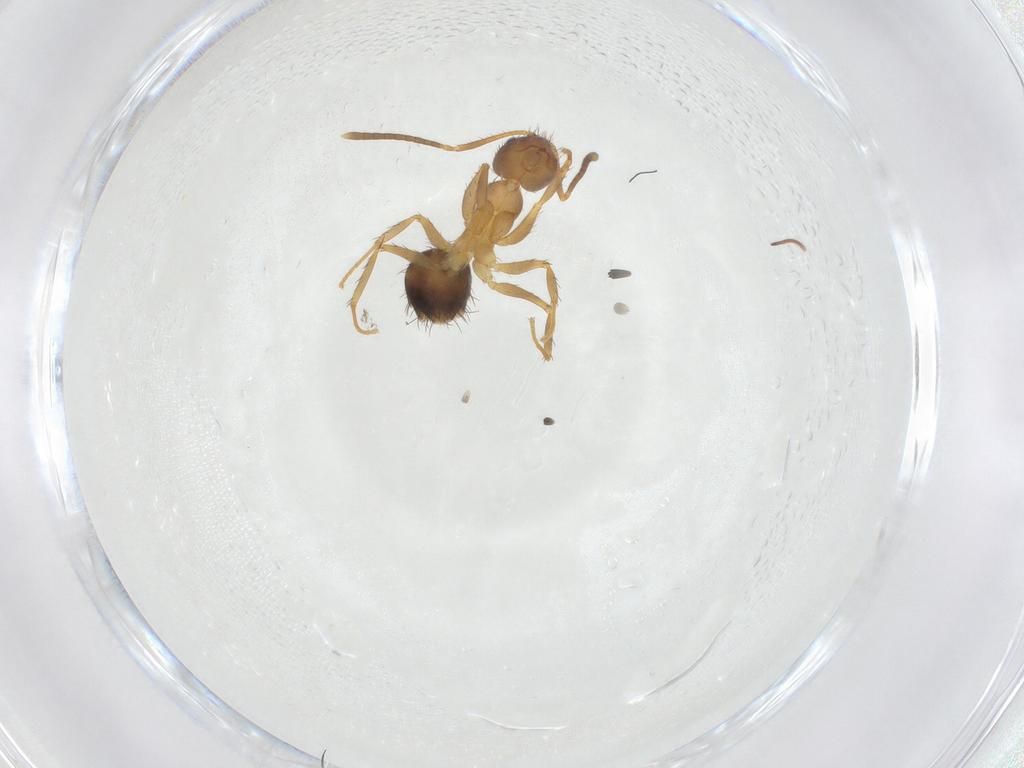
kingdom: Animalia
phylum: Arthropoda
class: Insecta
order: Hymenoptera
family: Formicidae
